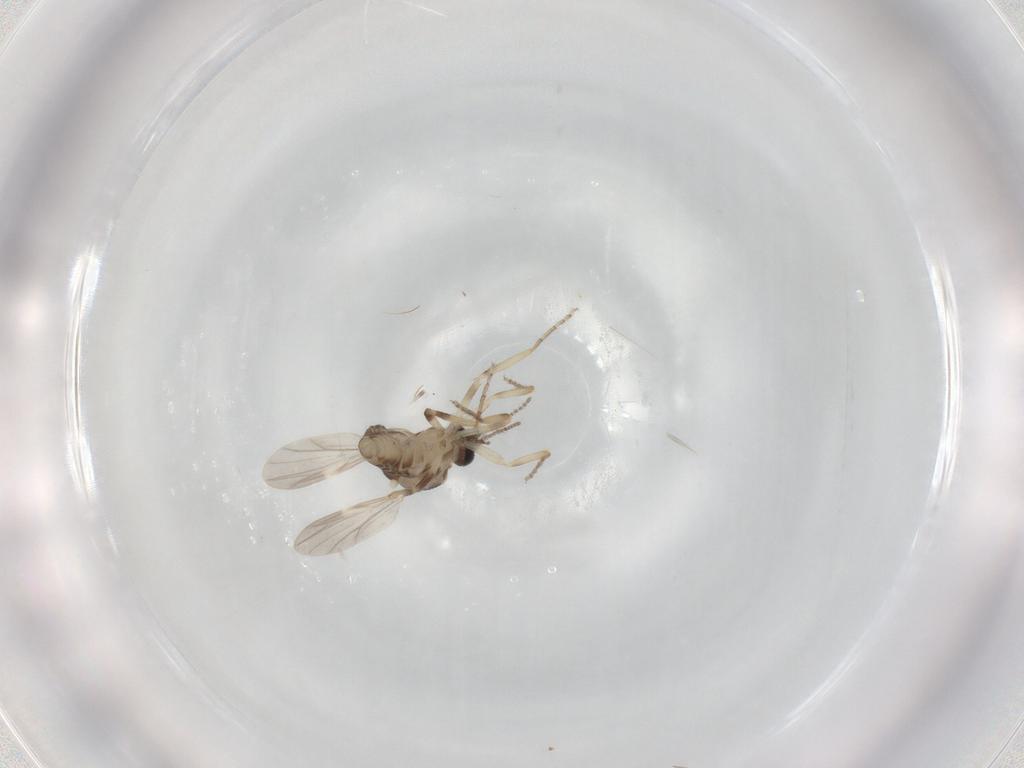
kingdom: Animalia
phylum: Arthropoda
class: Insecta
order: Diptera
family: Ceratopogonidae
